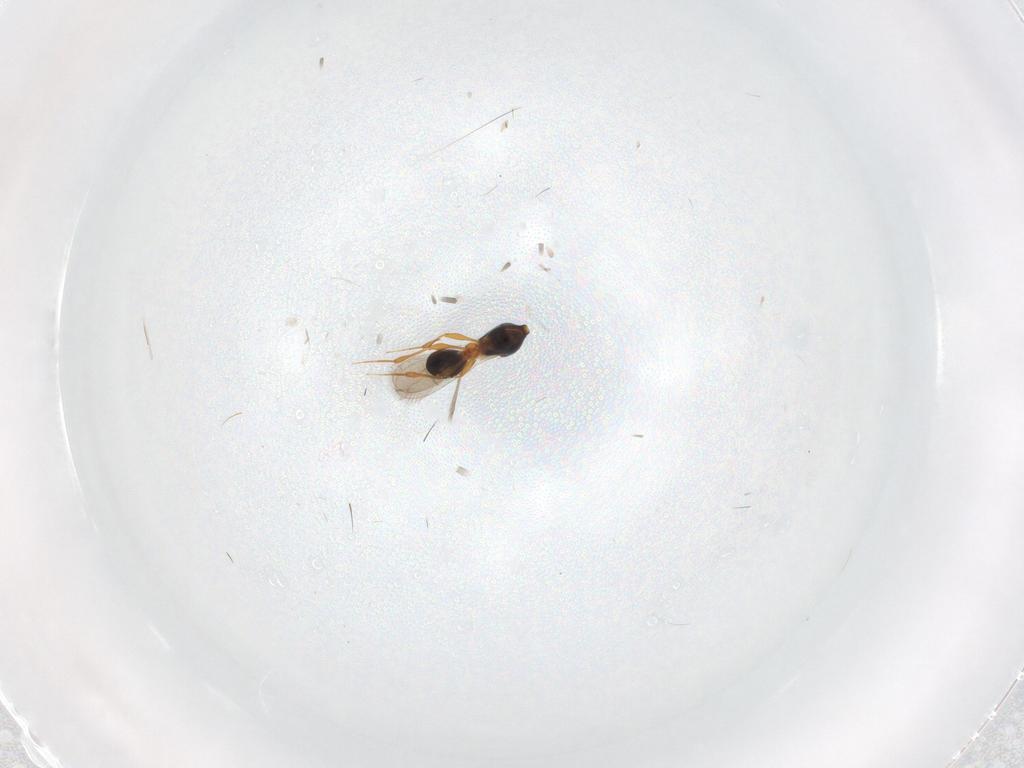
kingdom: Animalia
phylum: Arthropoda
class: Insecta
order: Hymenoptera
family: Platygastridae
